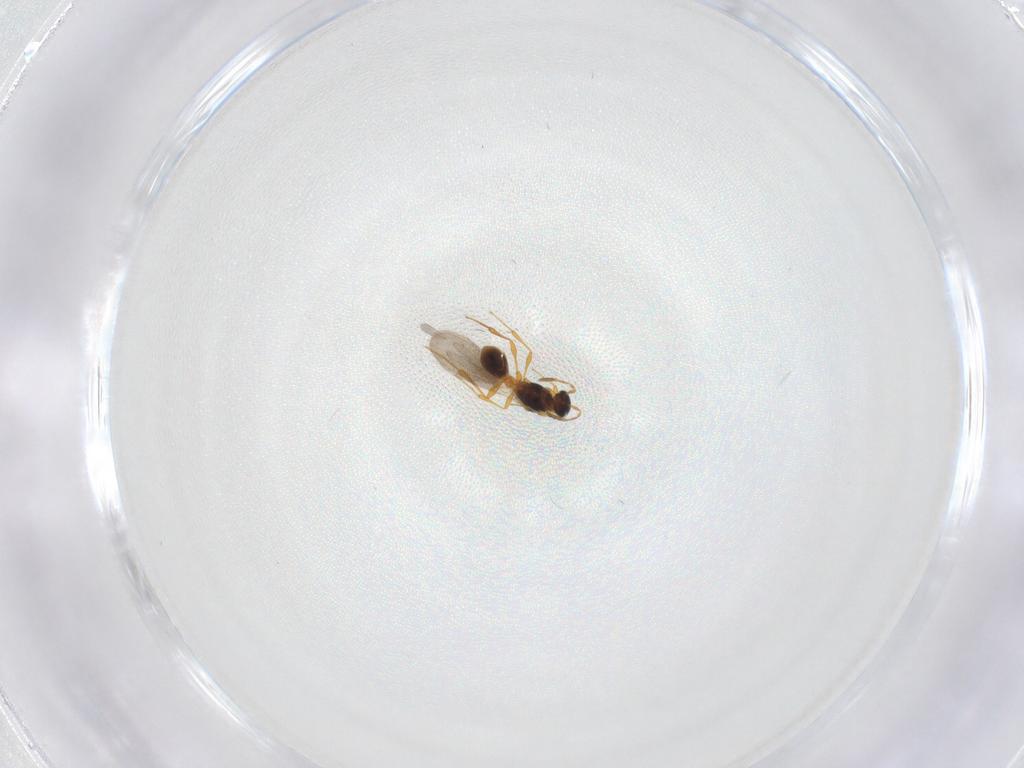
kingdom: Animalia
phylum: Arthropoda
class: Insecta
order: Hymenoptera
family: Platygastridae
